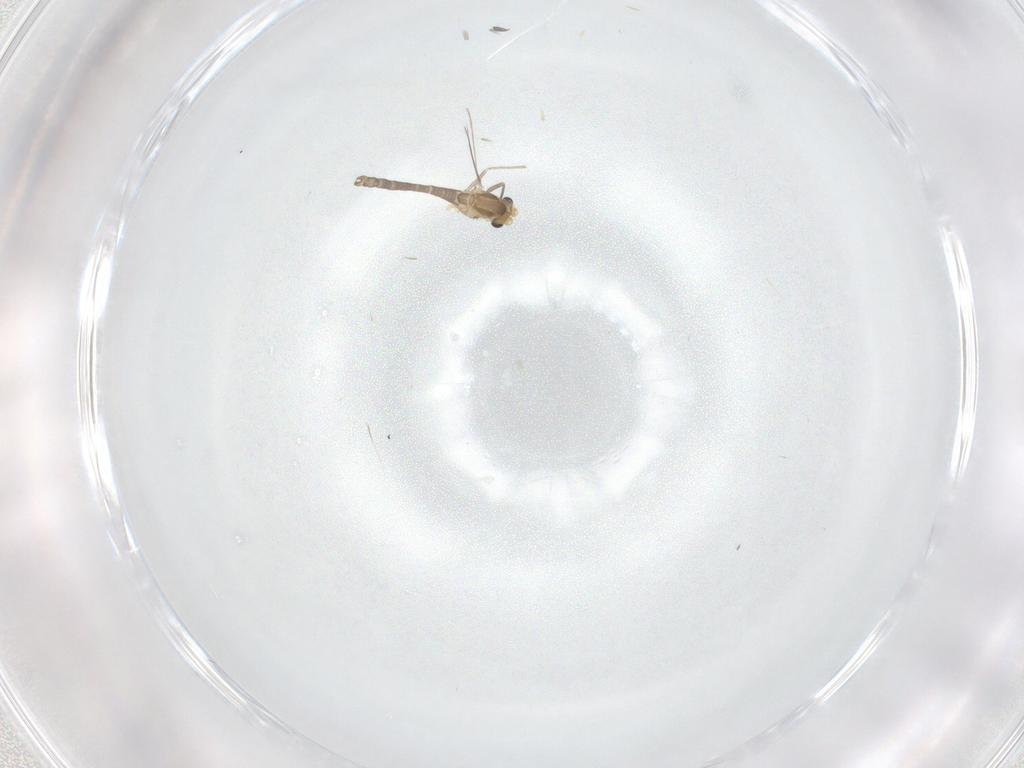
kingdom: Animalia
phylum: Arthropoda
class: Insecta
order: Diptera
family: Chironomidae
